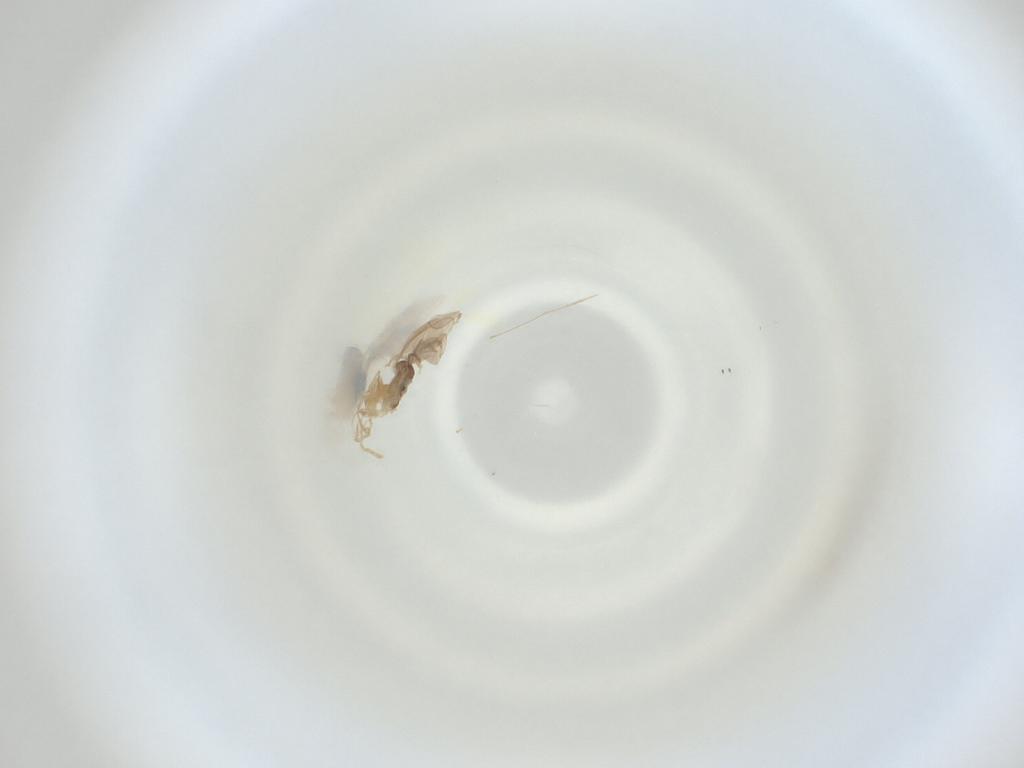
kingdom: Animalia
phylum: Arthropoda
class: Insecta
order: Diptera
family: Cecidomyiidae
